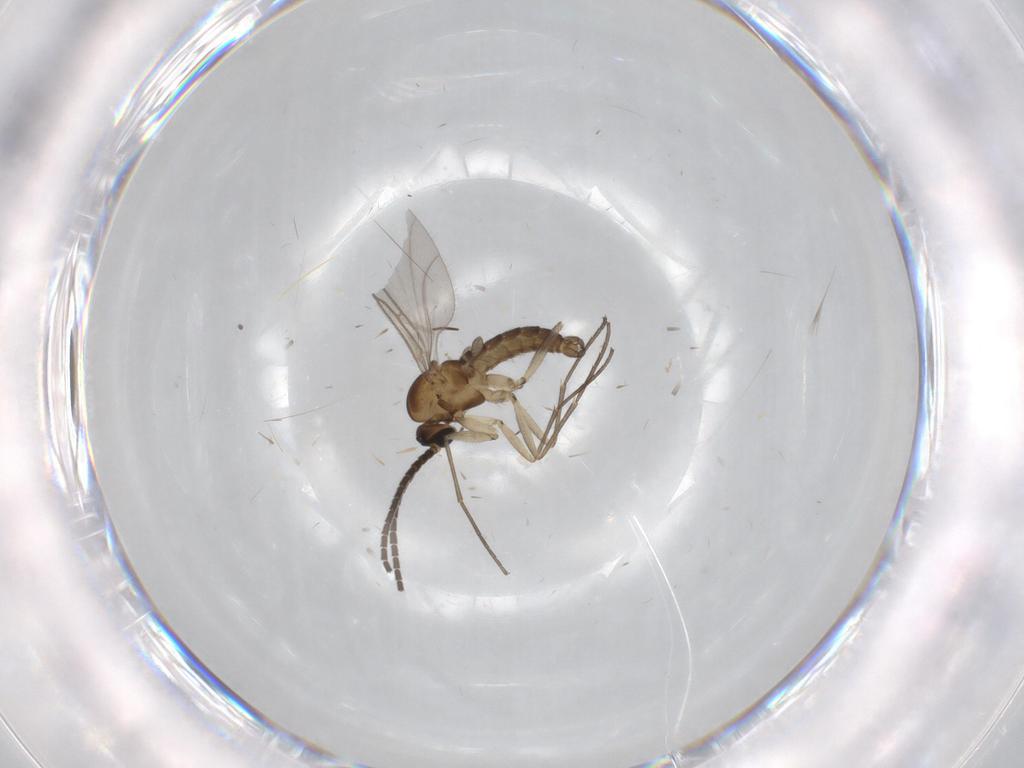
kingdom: Animalia
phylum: Arthropoda
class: Insecta
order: Diptera
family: Sciaridae
